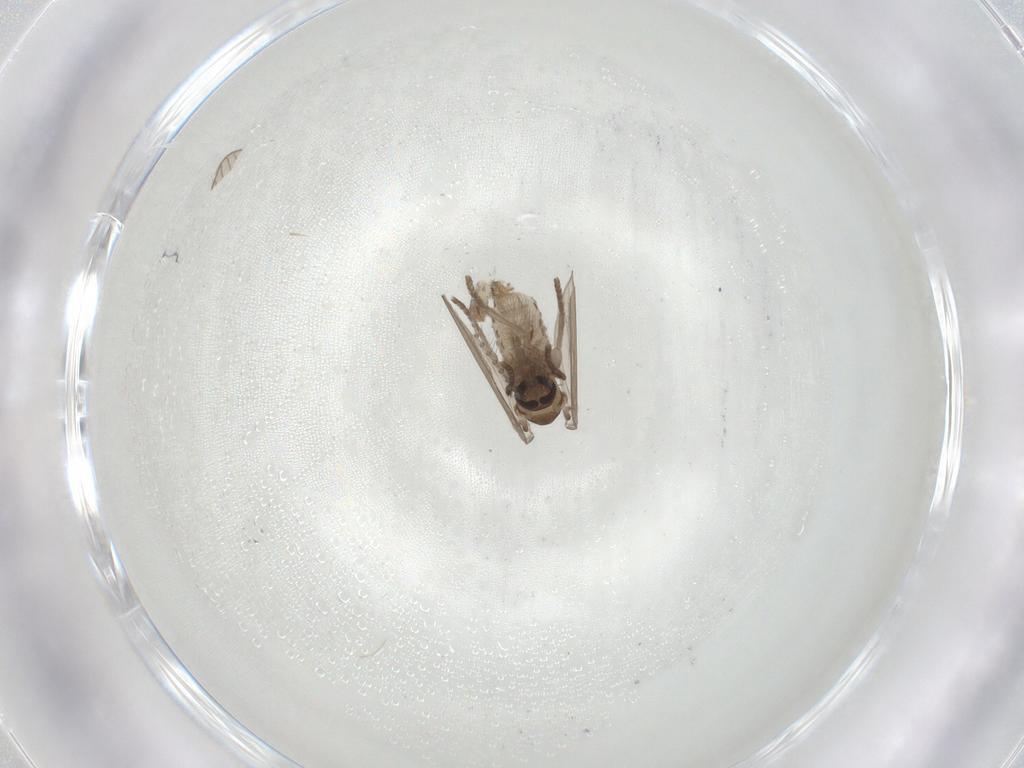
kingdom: Animalia
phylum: Arthropoda
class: Insecta
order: Diptera
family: Psychodidae
